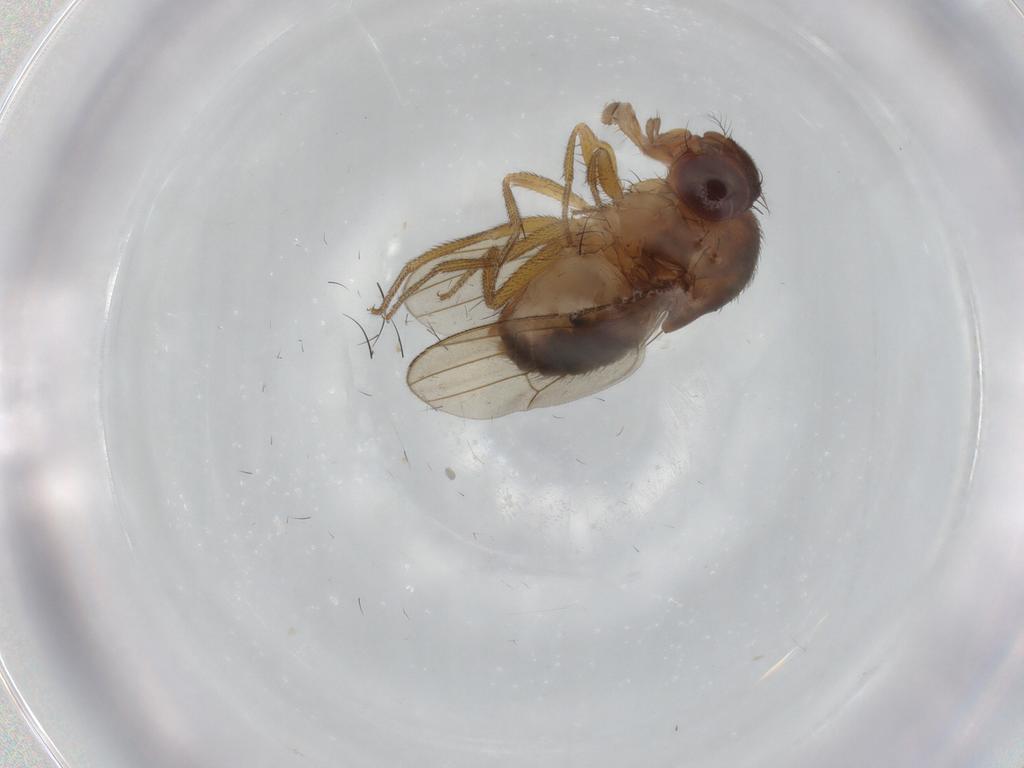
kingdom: Animalia
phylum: Arthropoda
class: Insecta
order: Diptera
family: Drosophilidae
